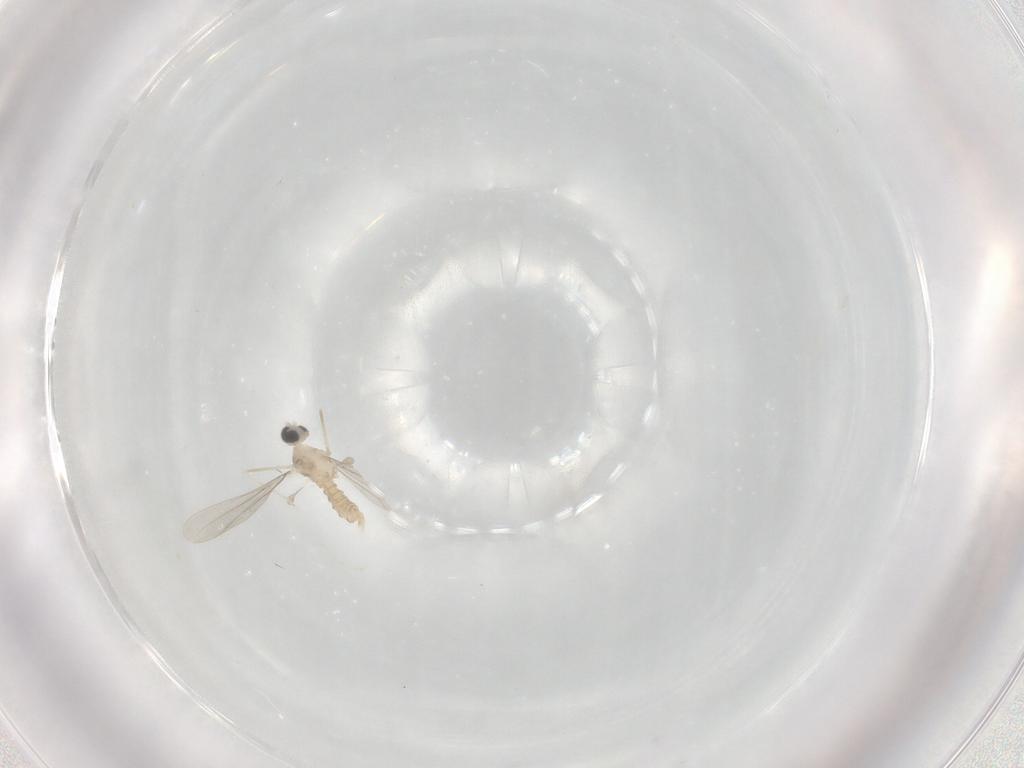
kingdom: Animalia
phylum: Arthropoda
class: Insecta
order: Diptera
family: Cecidomyiidae
